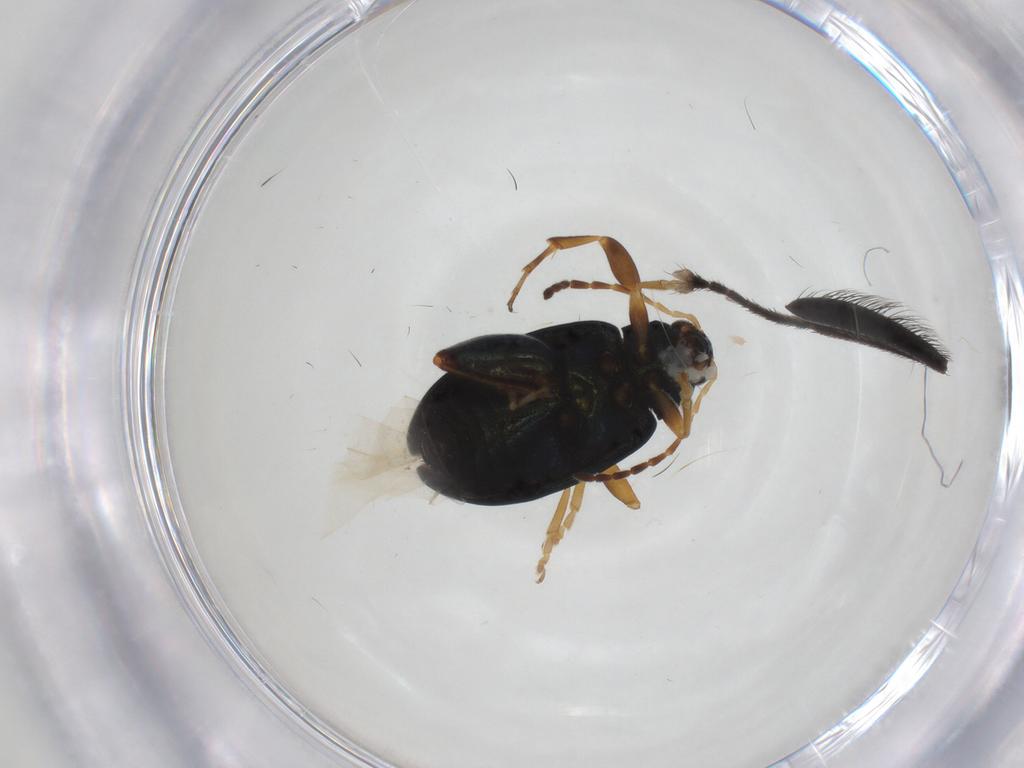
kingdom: Animalia
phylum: Arthropoda
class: Insecta
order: Coleoptera
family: Chrysomelidae
